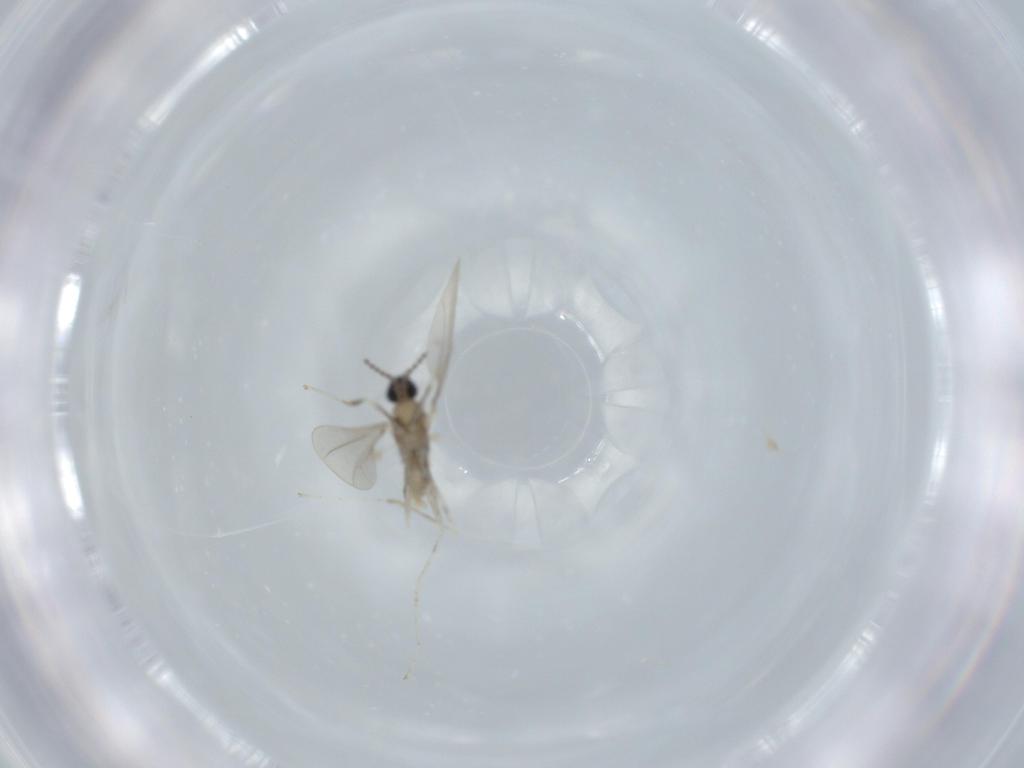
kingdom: Animalia
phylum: Arthropoda
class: Insecta
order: Diptera
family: Cecidomyiidae
